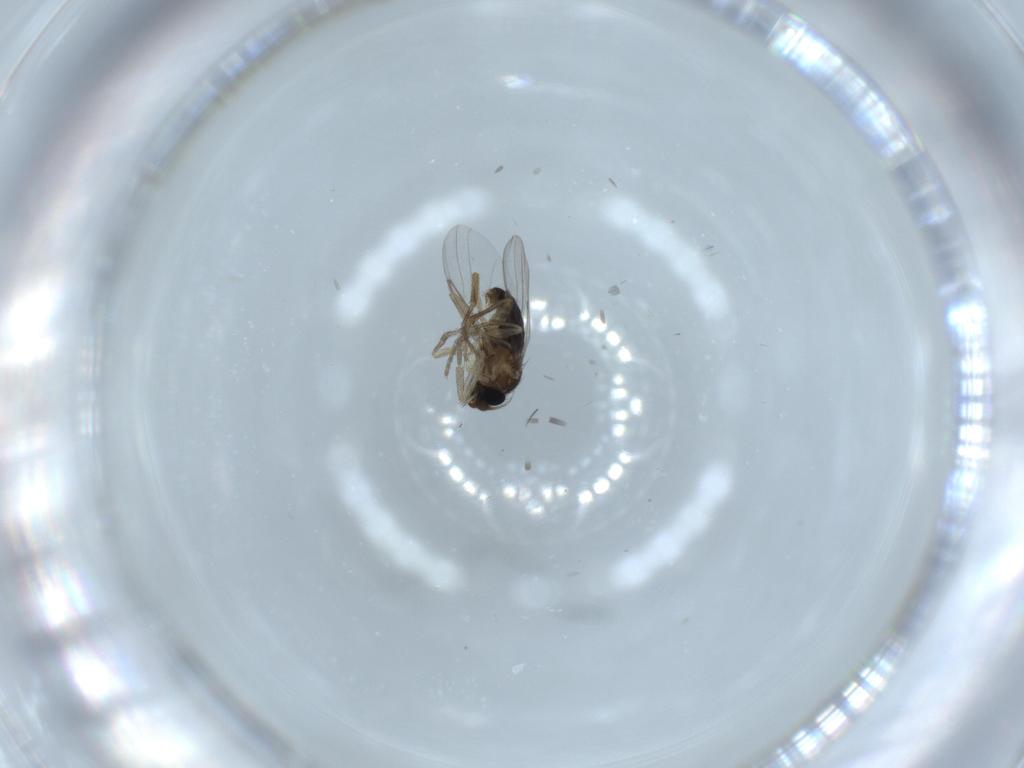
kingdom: Animalia
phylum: Arthropoda
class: Insecta
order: Diptera
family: Phoridae
